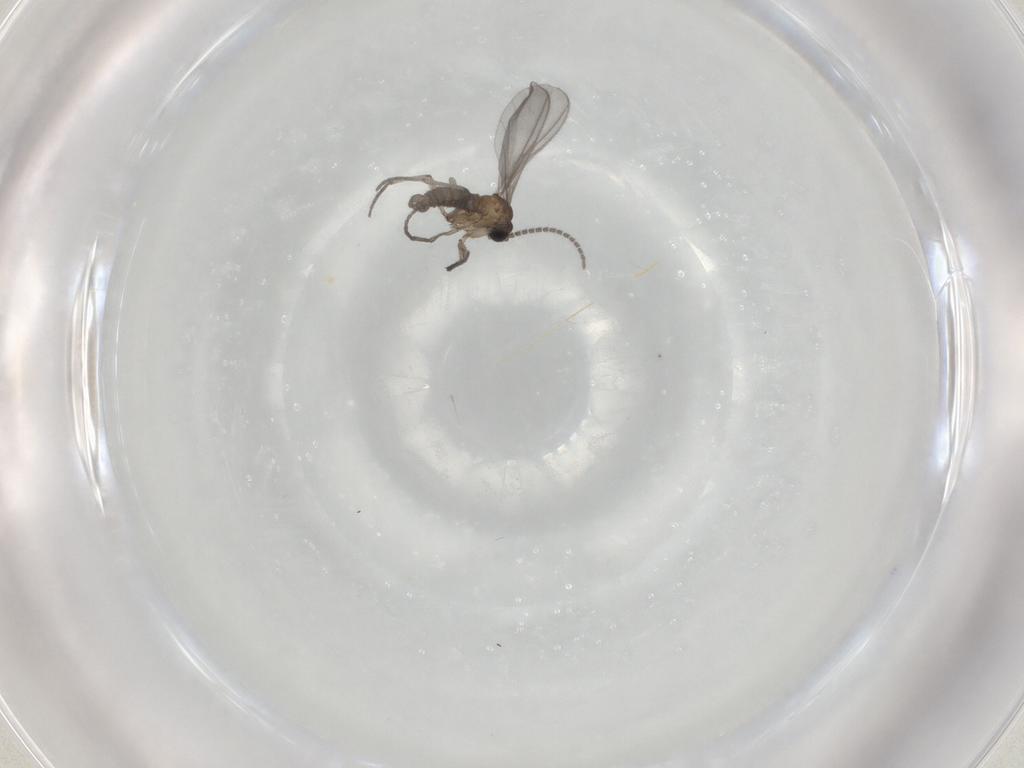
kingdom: Animalia
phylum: Arthropoda
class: Insecta
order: Diptera
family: Sciaridae
